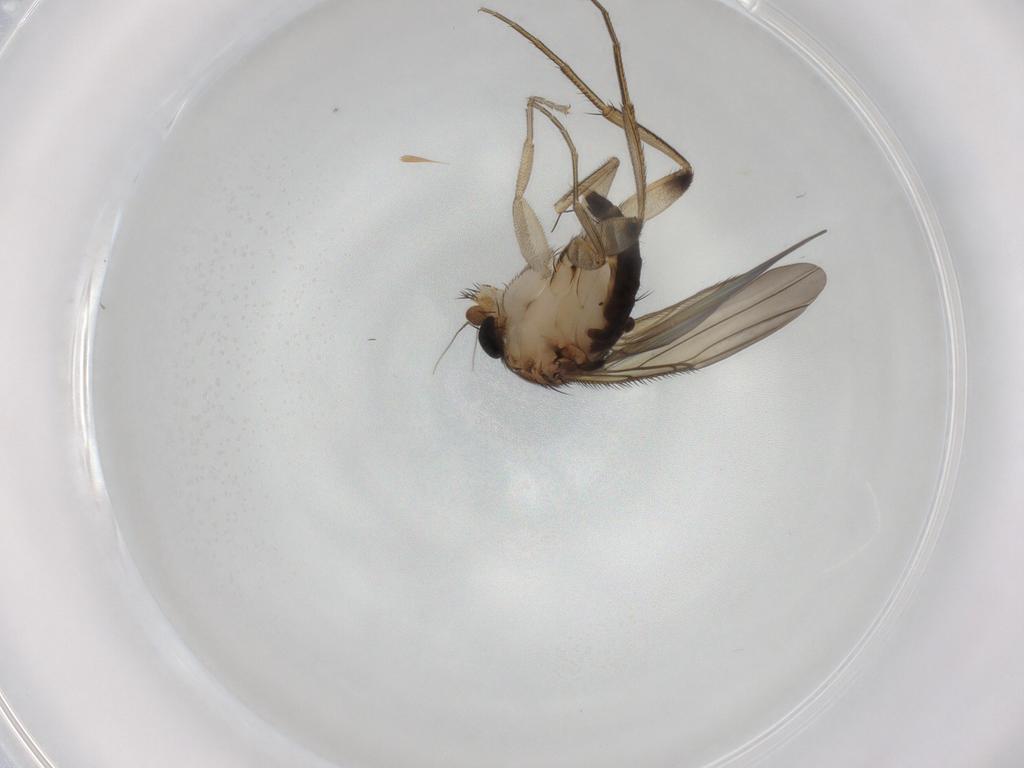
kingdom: Animalia
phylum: Arthropoda
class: Insecta
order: Diptera
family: Phoridae
